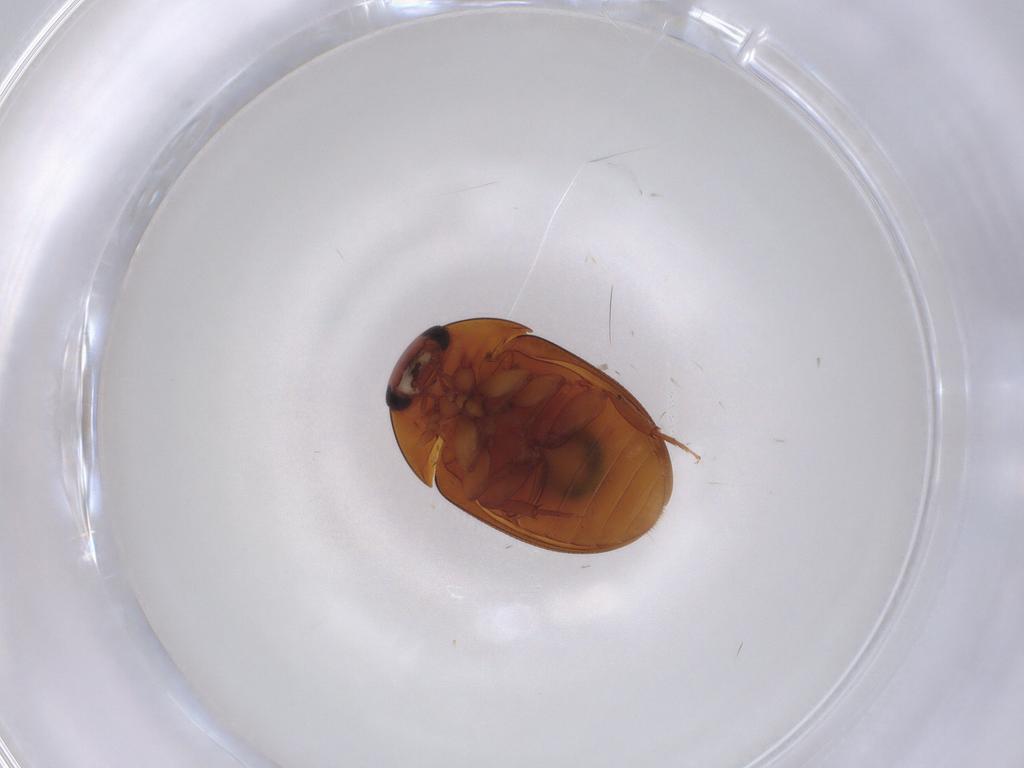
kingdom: Animalia
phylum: Arthropoda
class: Insecta
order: Coleoptera
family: Phalacridae
